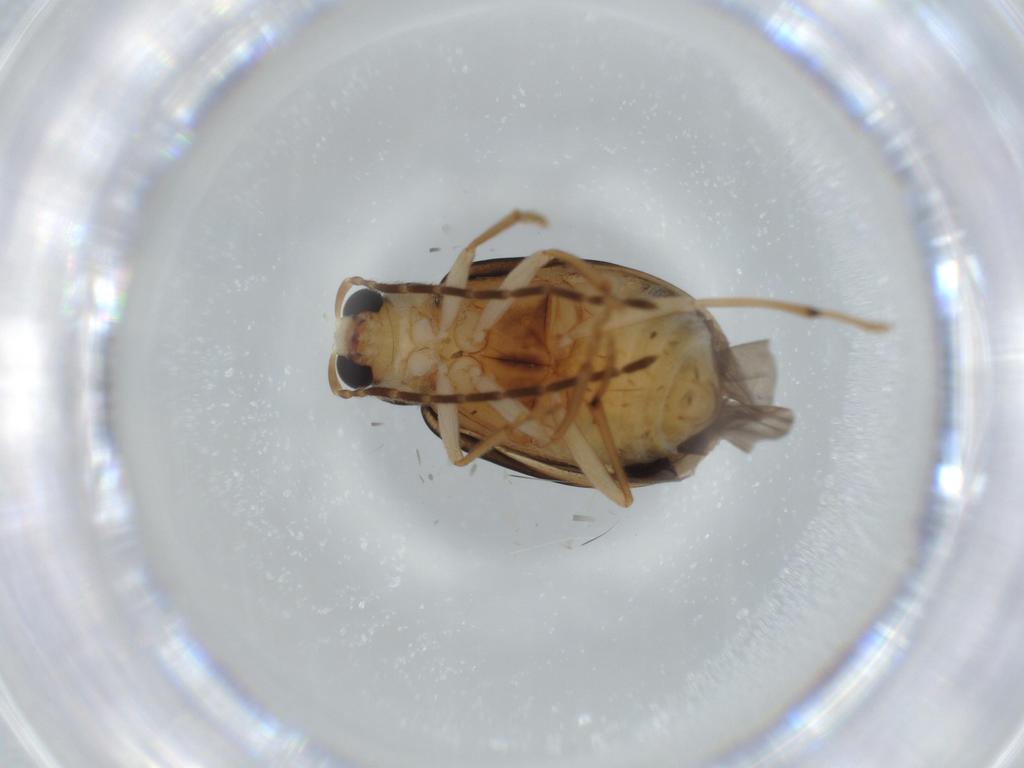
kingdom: Animalia
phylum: Arthropoda
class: Insecta
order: Coleoptera
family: Chrysomelidae
